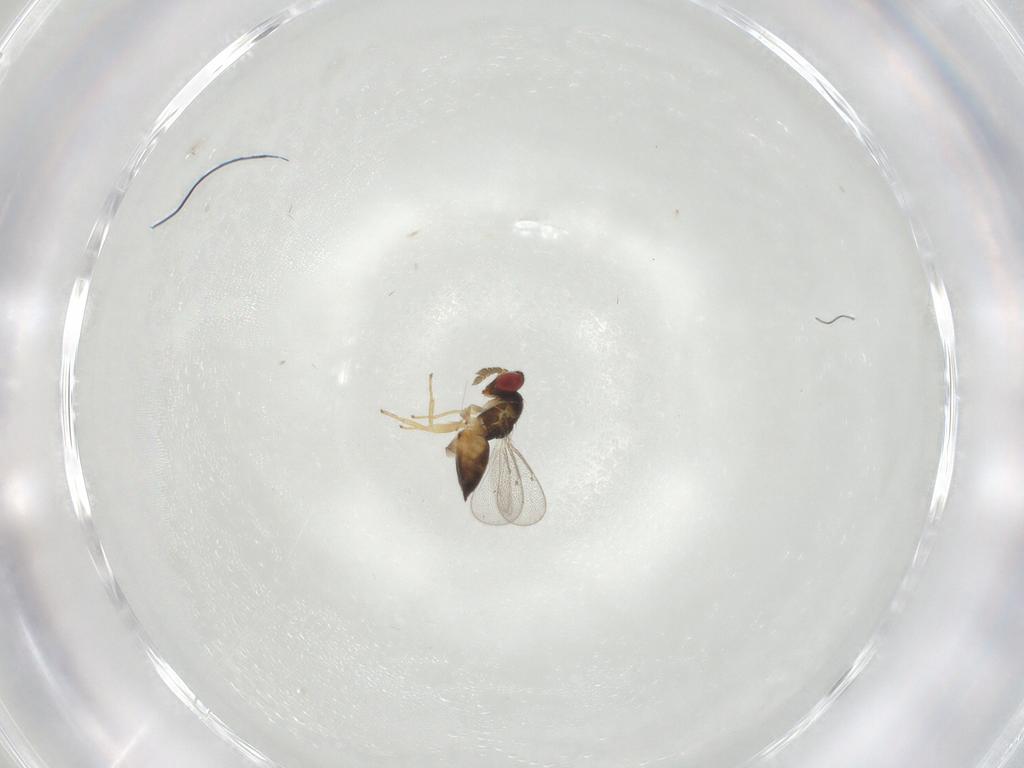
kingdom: Animalia
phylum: Arthropoda
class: Insecta
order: Hymenoptera
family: Eulophidae
